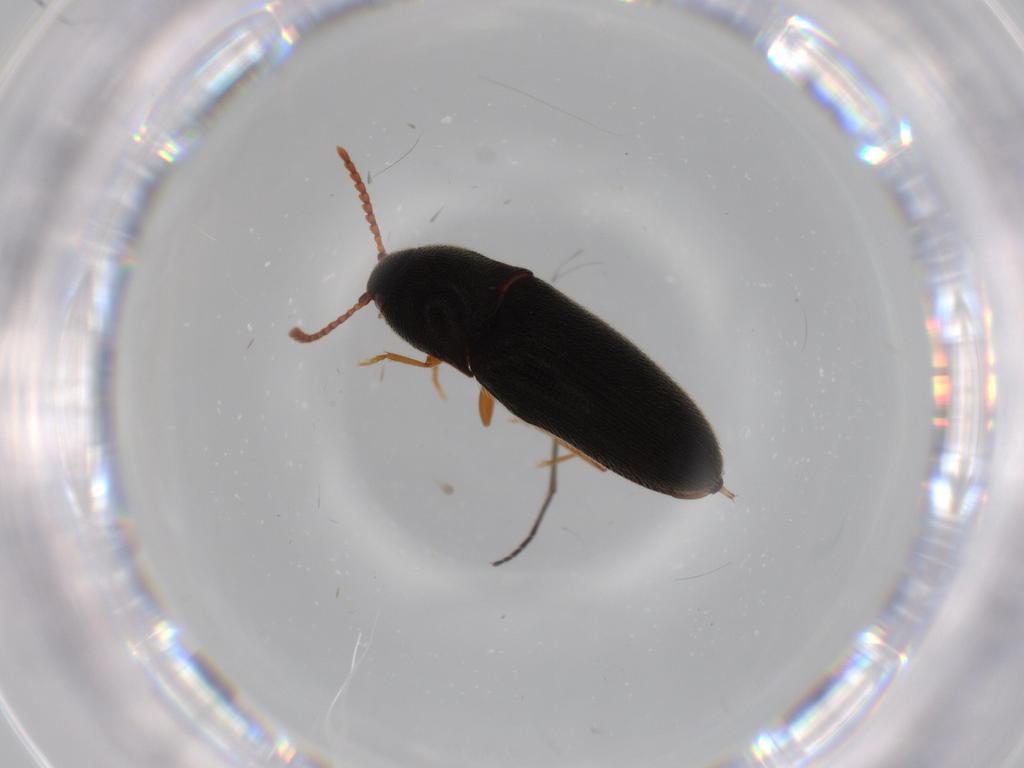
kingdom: Animalia
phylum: Arthropoda
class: Insecta
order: Coleoptera
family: Elateridae
